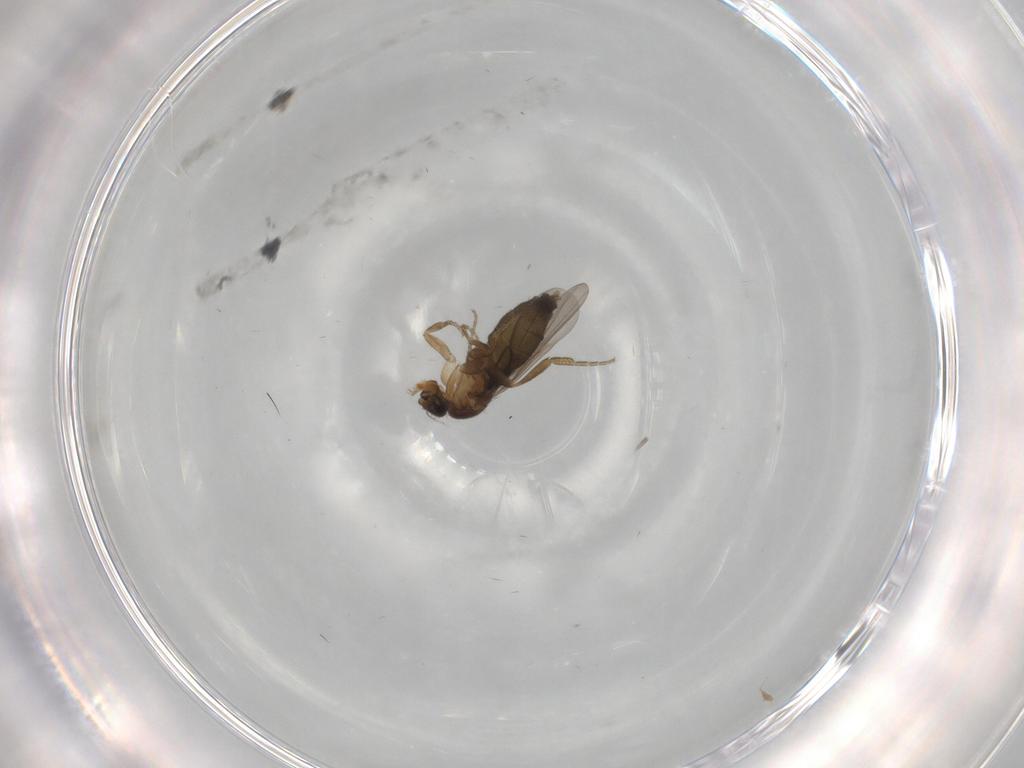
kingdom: Animalia
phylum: Arthropoda
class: Insecta
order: Diptera
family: Phoridae
